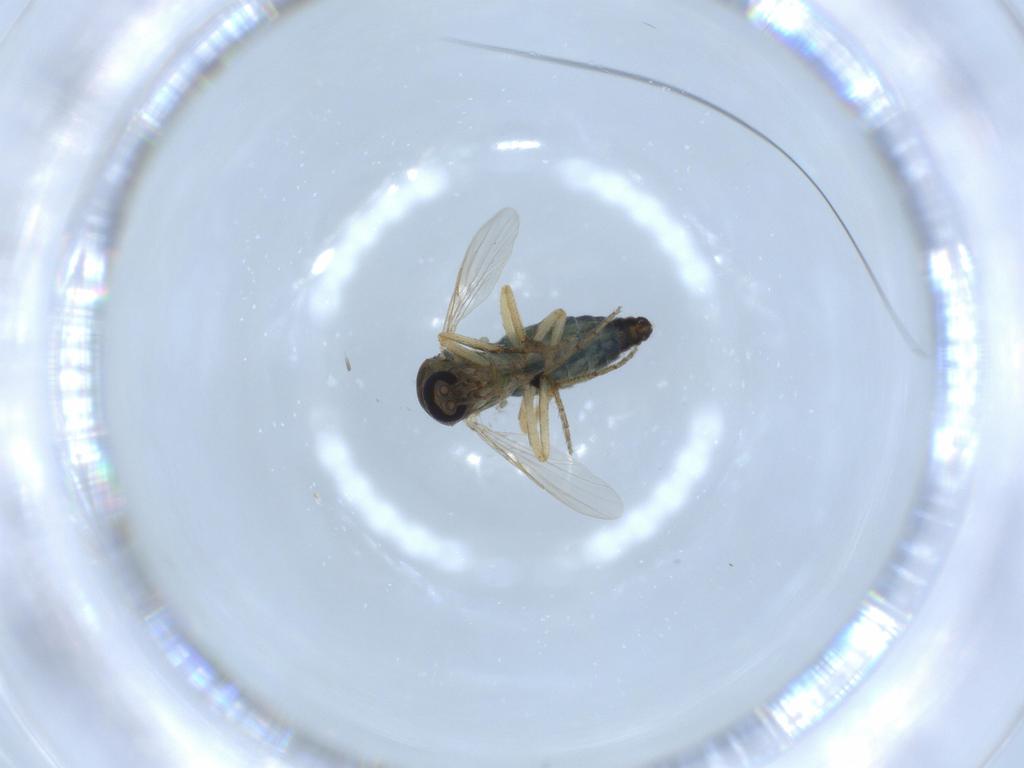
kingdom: Animalia
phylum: Arthropoda
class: Insecta
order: Diptera
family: Ceratopogonidae
